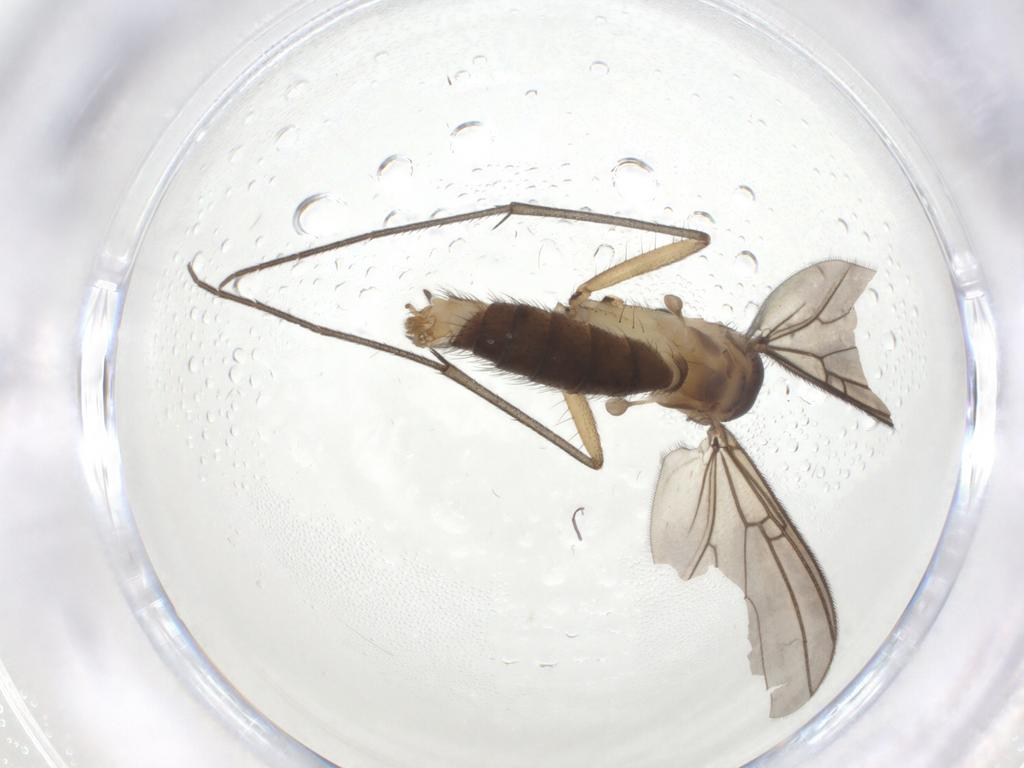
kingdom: Animalia
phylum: Arthropoda
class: Insecta
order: Diptera
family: Mycetophilidae
